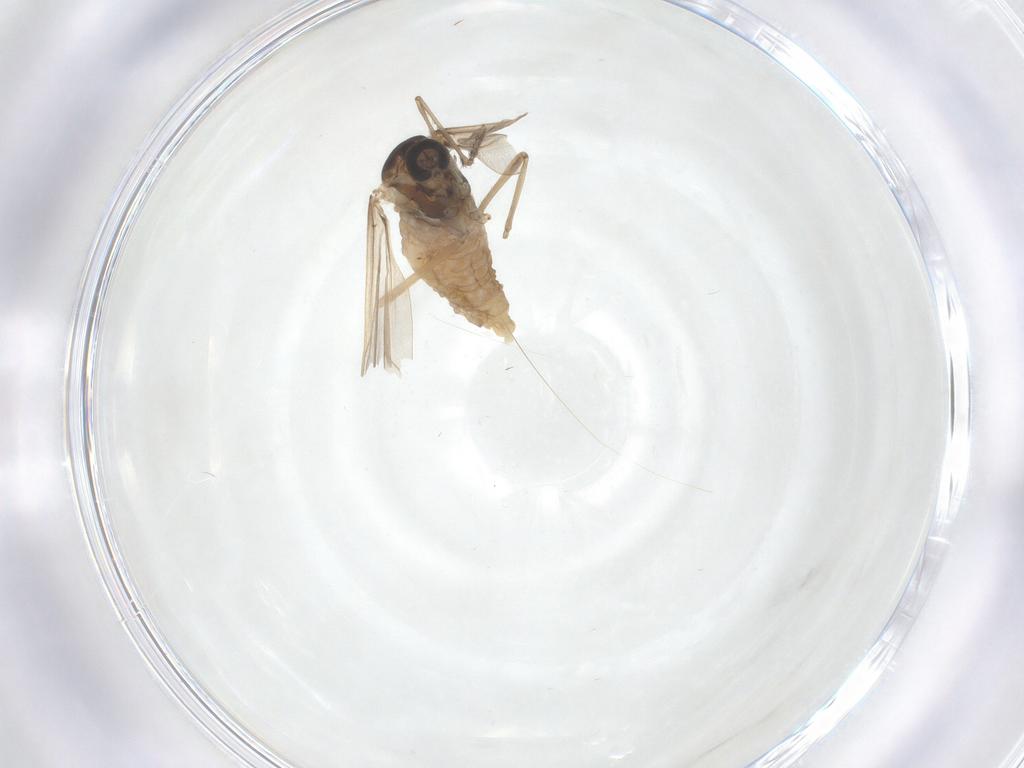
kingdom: Animalia
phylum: Arthropoda
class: Insecta
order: Diptera
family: Cecidomyiidae
